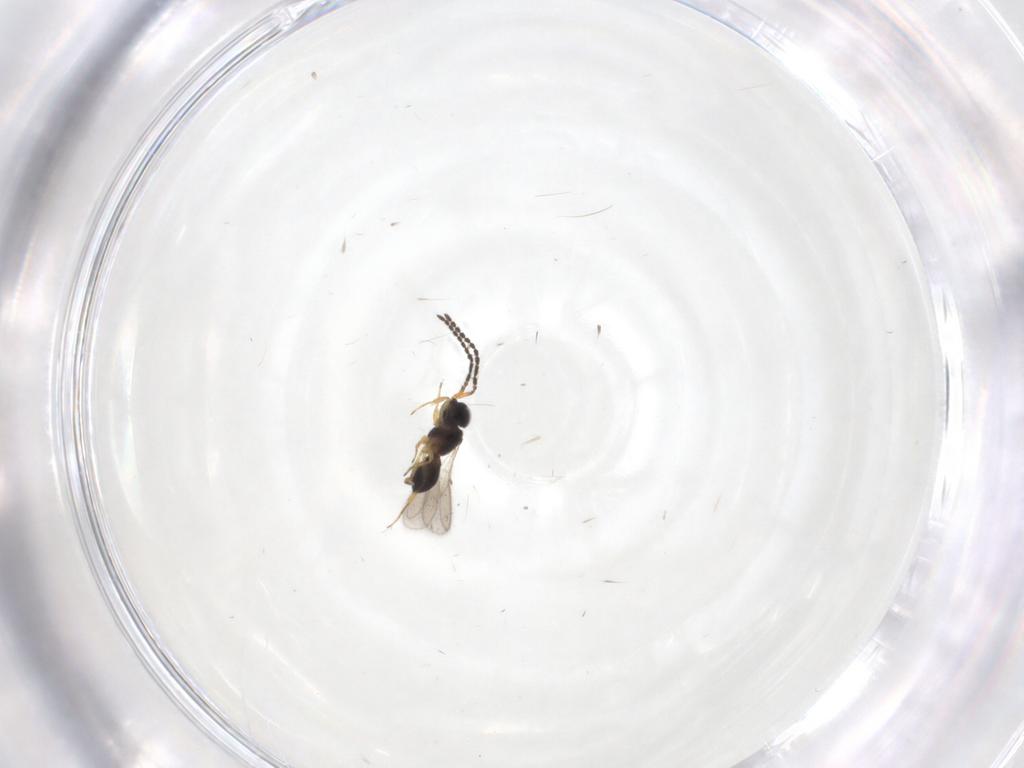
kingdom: Animalia
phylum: Arthropoda
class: Insecta
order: Hymenoptera
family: Scelionidae
